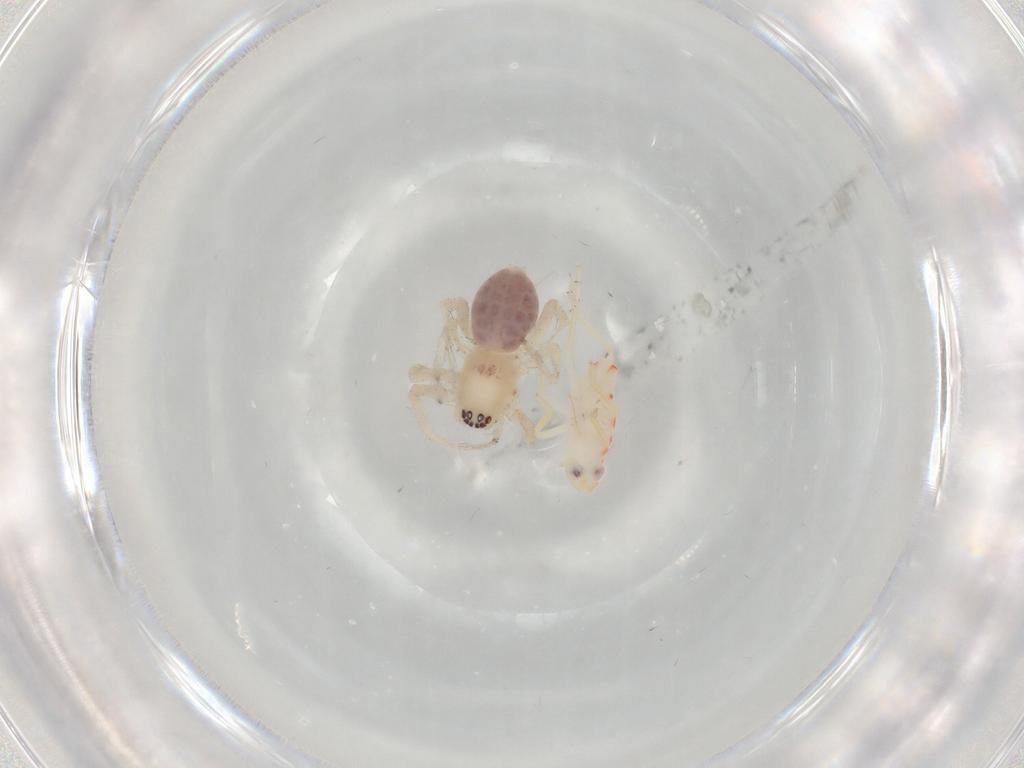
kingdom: Animalia
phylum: Arthropoda
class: Arachnida
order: Araneae
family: Anyphaenidae
